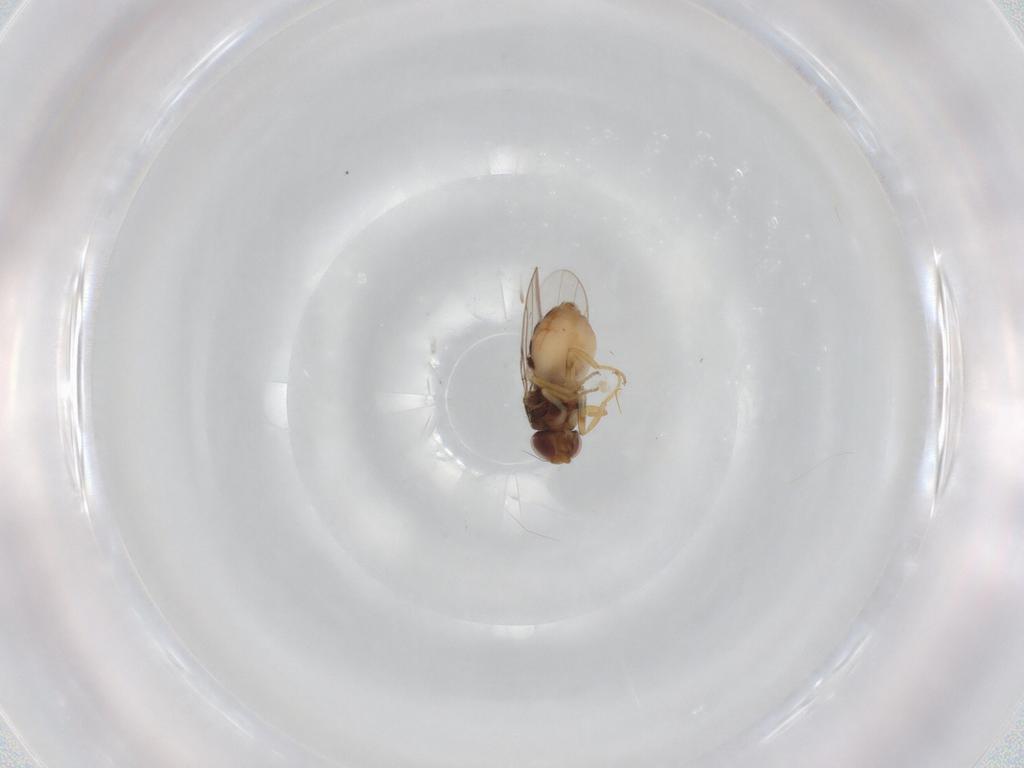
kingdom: Animalia
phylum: Arthropoda
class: Insecta
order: Diptera
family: Chloropidae
